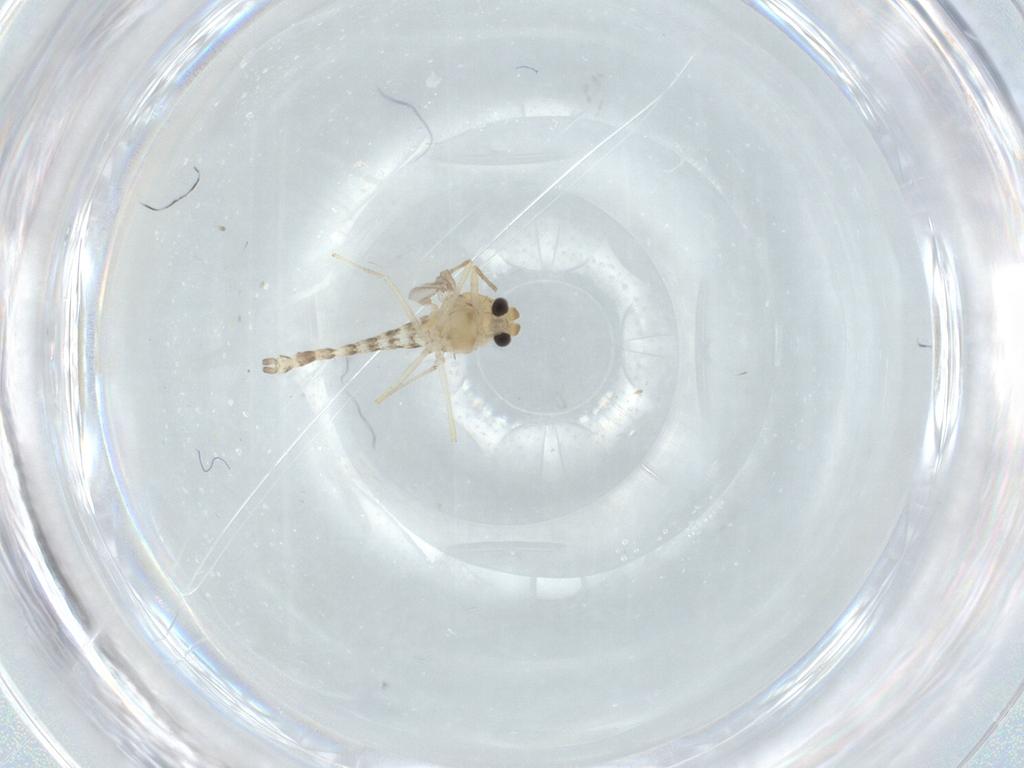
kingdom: Animalia
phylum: Arthropoda
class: Insecta
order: Diptera
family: Chironomidae
